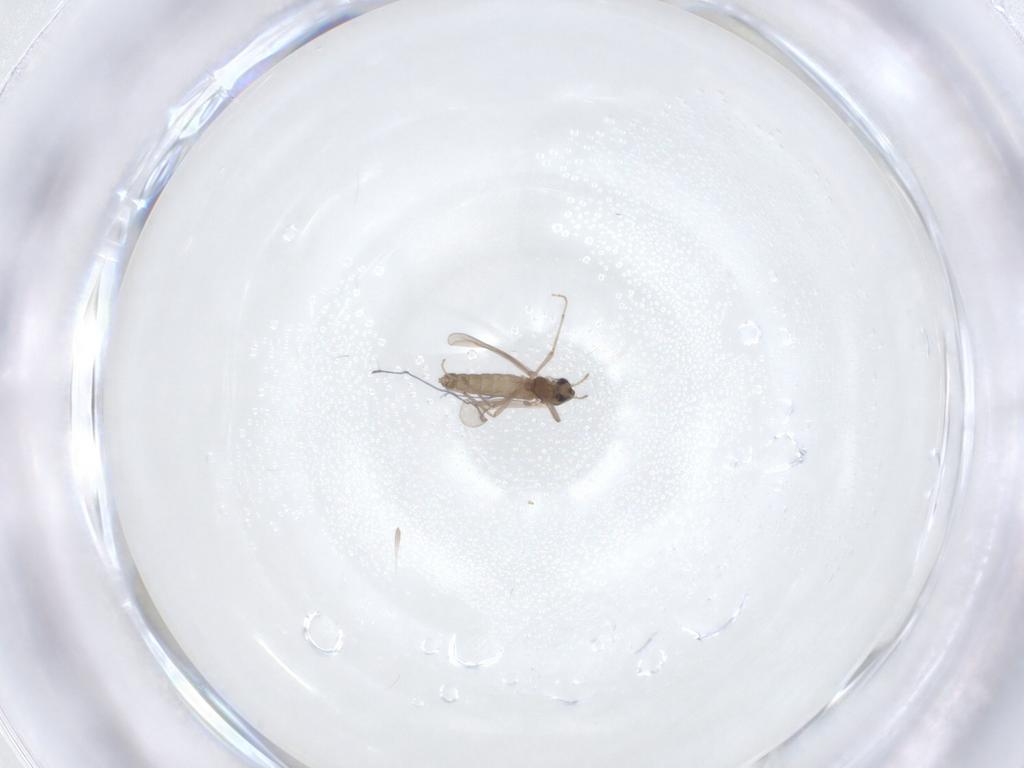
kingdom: Animalia
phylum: Arthropoda
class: Insecta
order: Diptera
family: Chironomidae
